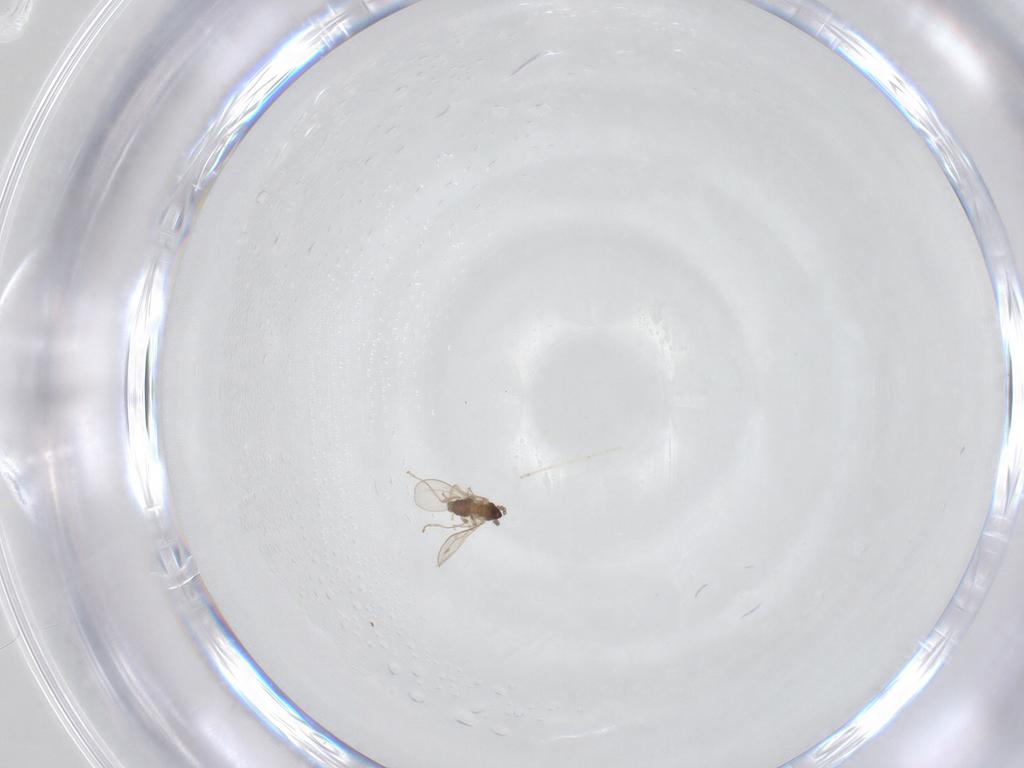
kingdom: Animalia
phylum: Arthropoda
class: Insecta
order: Diptera
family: Cecidomyiidae
